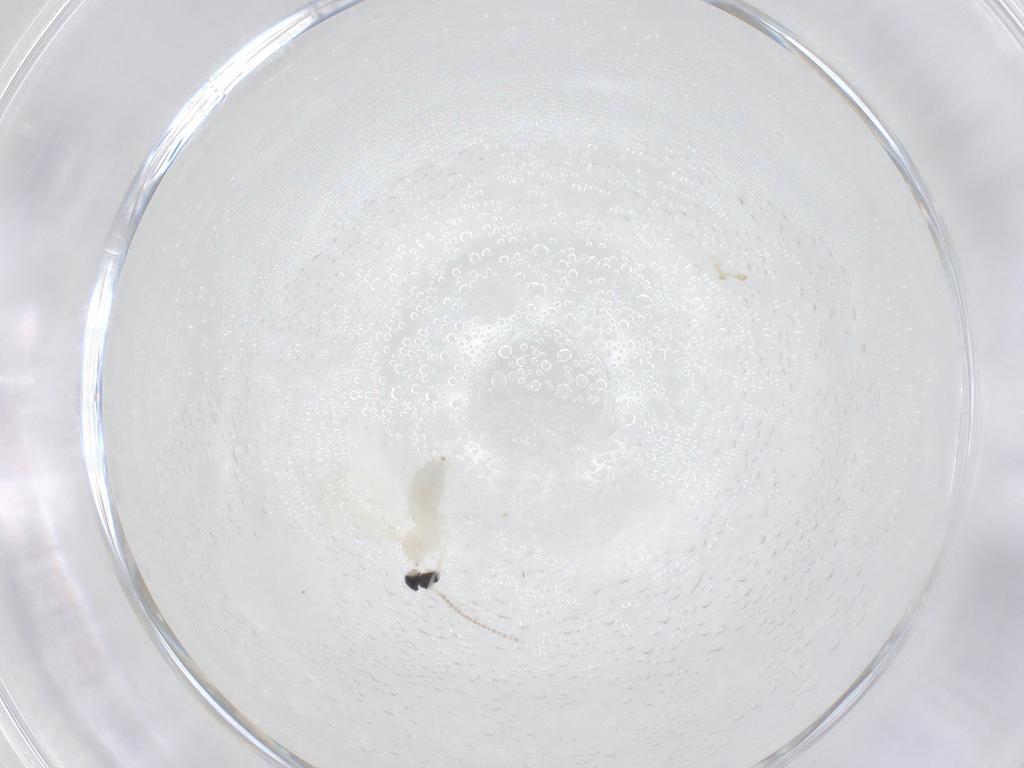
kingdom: Animalia
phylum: Arthropoda
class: Insecta
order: Diptera
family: Cecidomyiidae
